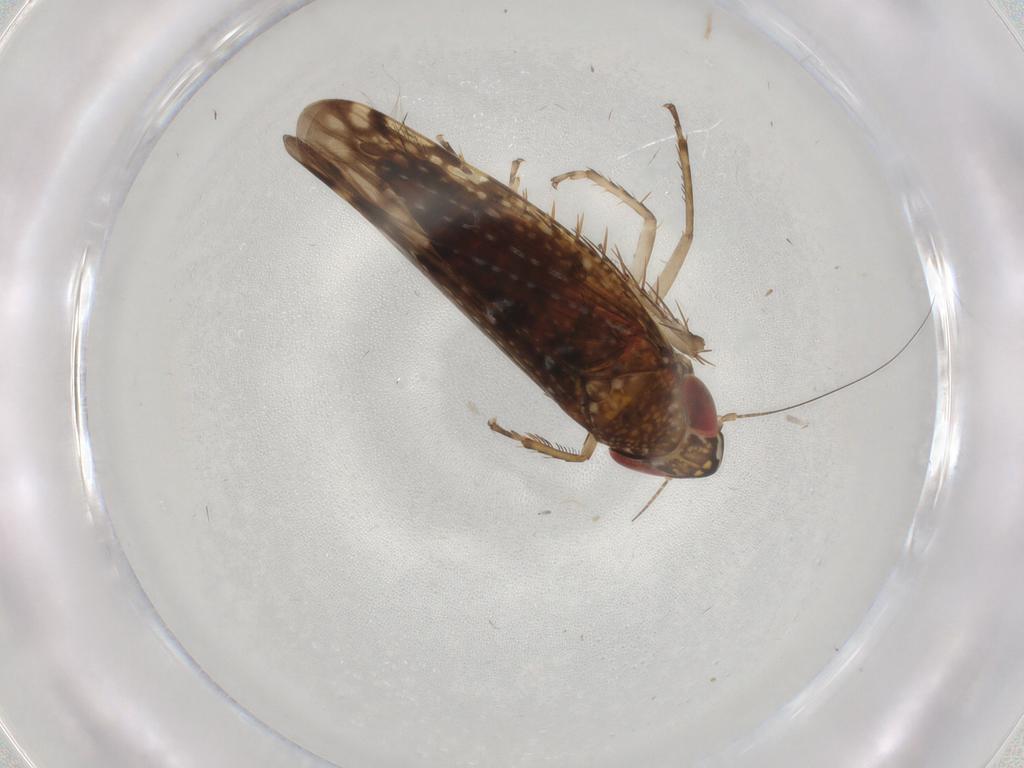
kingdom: Animalia
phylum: Arthropoda
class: Insecta
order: Hemiptera
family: Cicadellidae
